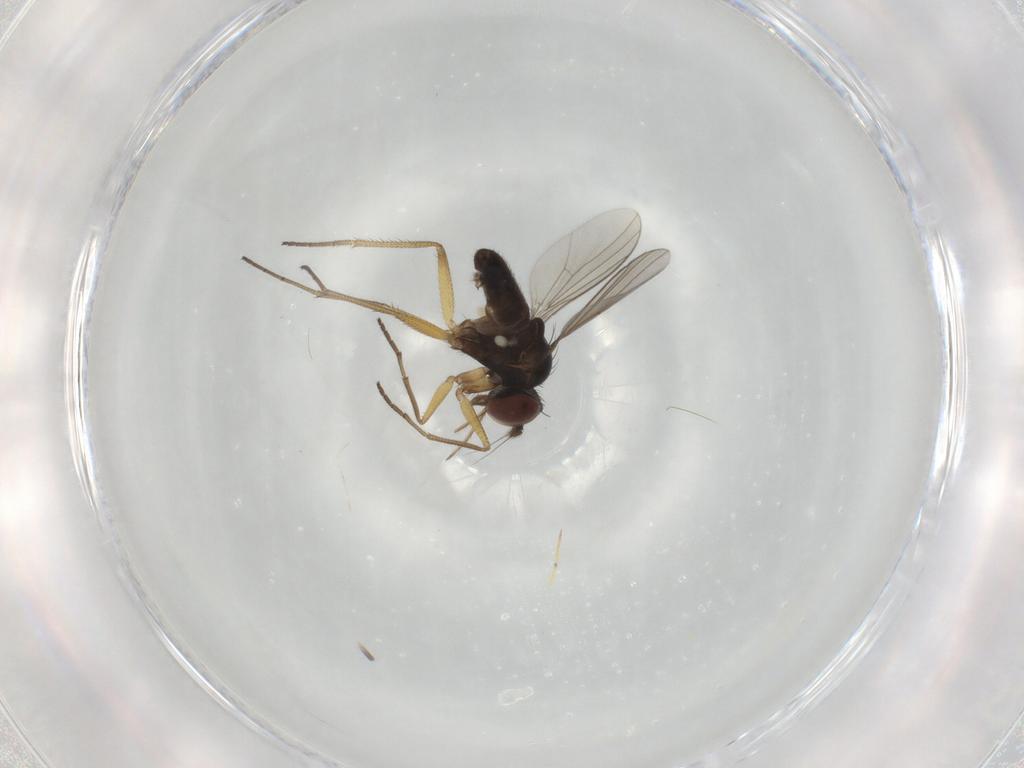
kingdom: Animalia
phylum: Arthropoda
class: Insecta
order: Diptera
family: Dolichopodidae
